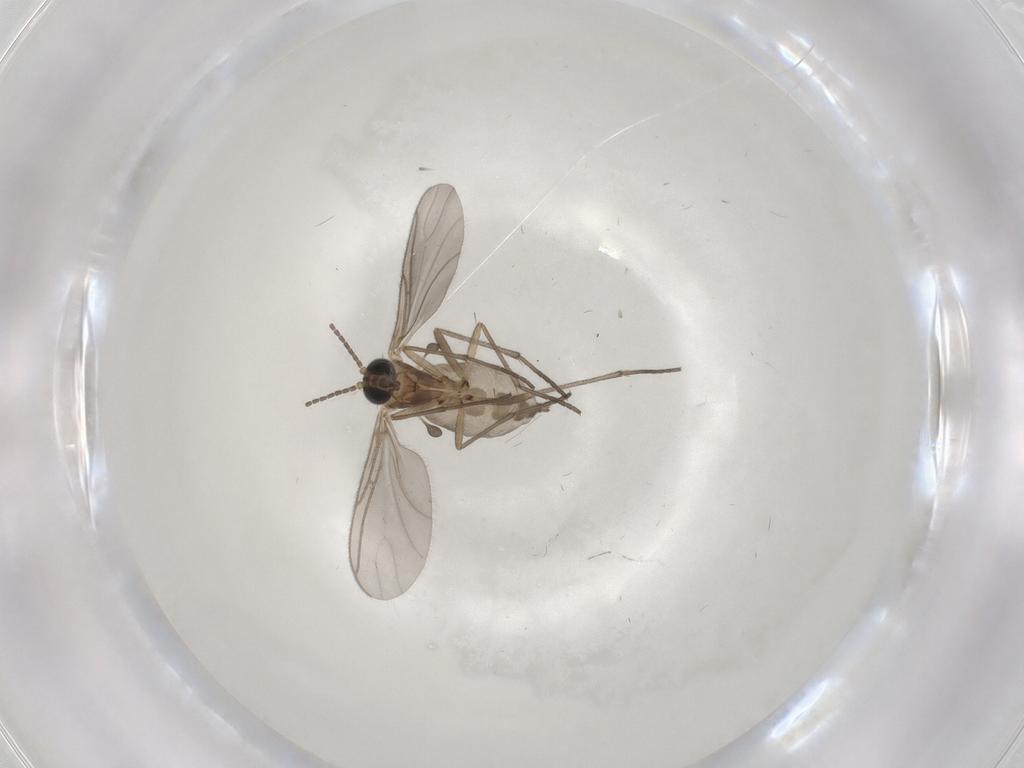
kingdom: Animalia
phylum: Arthropoda
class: Insecta
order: Diptera
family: Sciaridae
